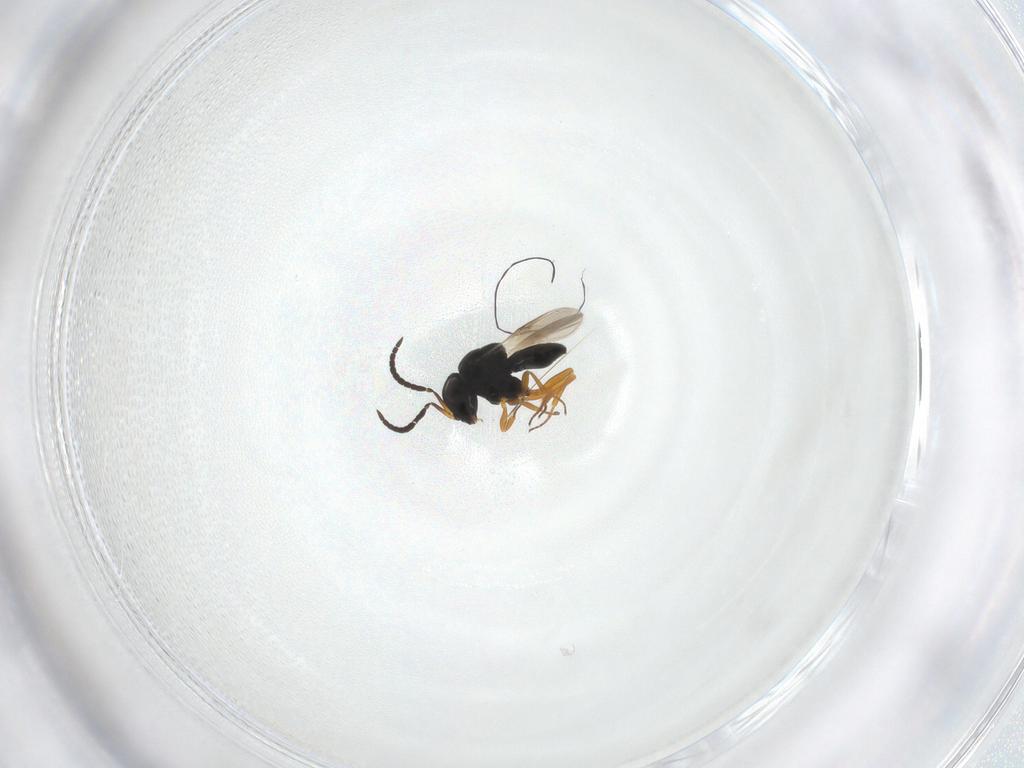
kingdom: Animalia
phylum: Arthropoda
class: Insecta
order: Hymenoptera
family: Scelionidae
